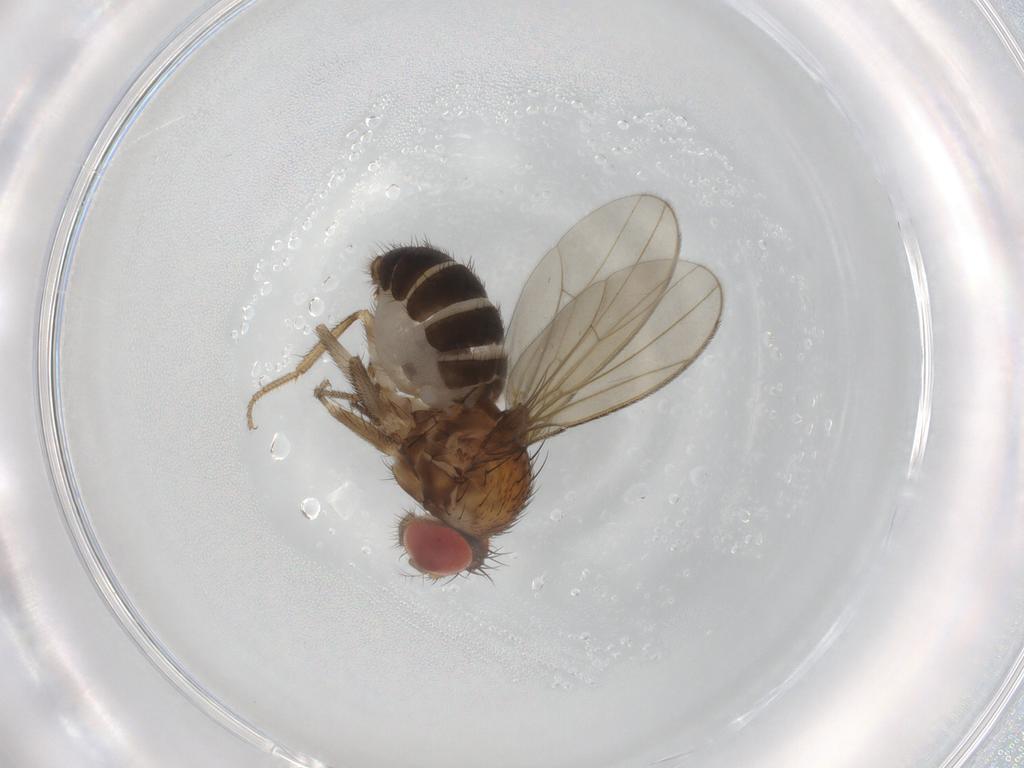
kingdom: Animalia
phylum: Arthropoda
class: Insecta
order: Diptera
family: Drosophilidae
